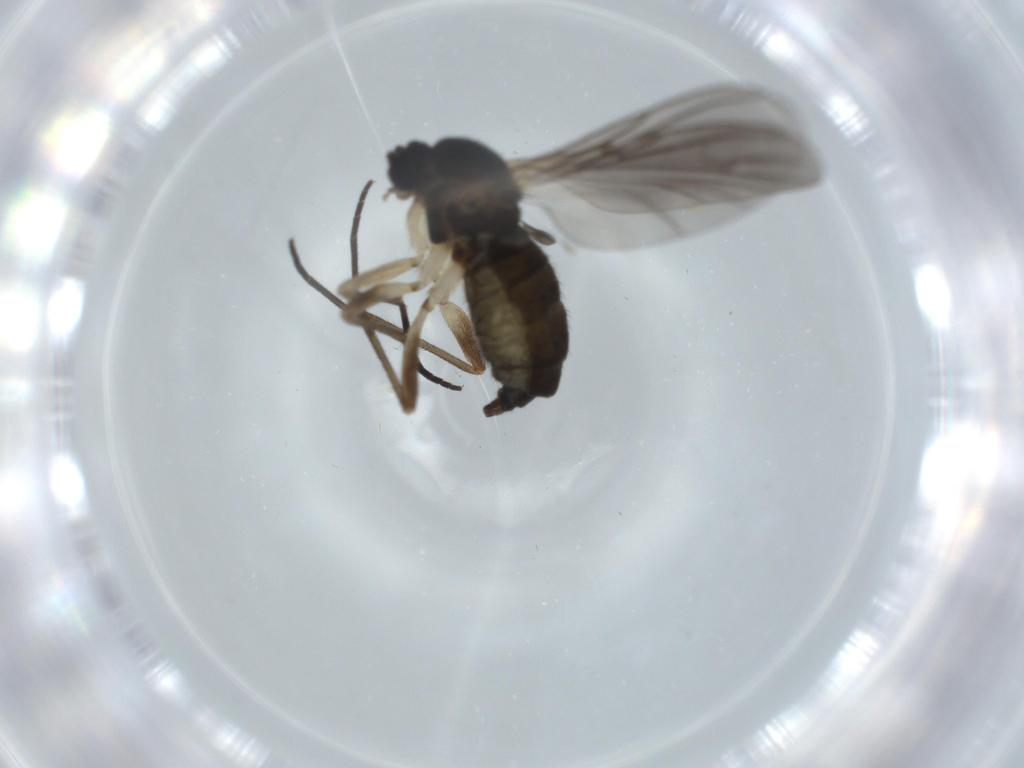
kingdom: Animalia
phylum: Arthropoda
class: Insecta
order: Diptera
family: Asilidae
